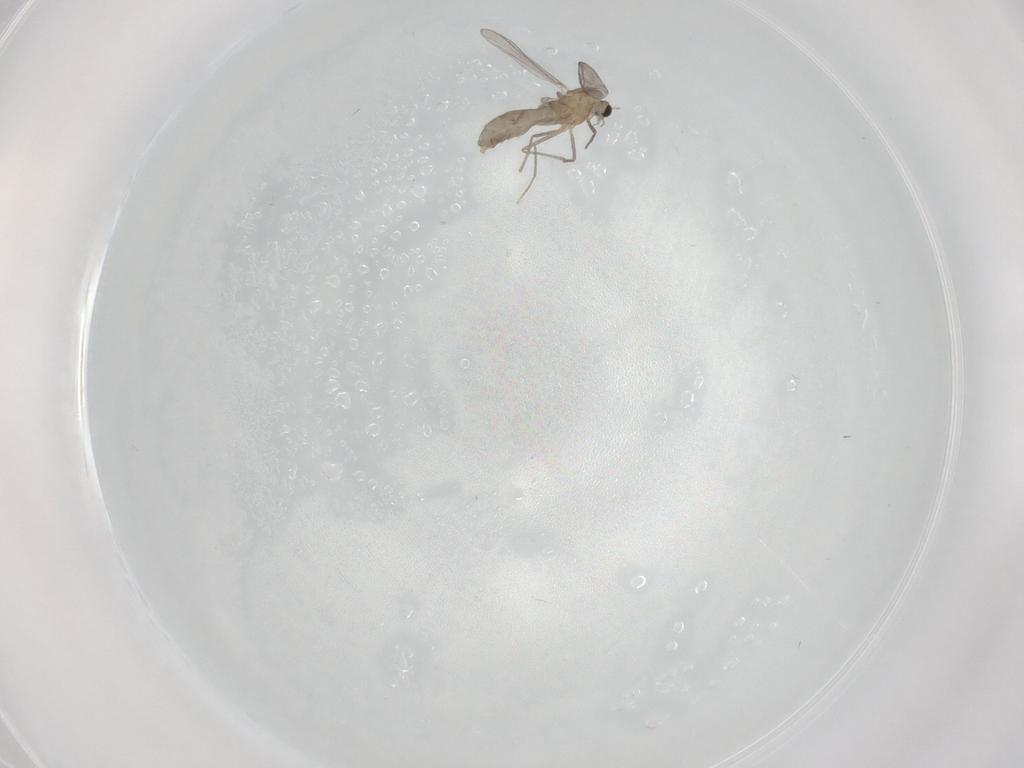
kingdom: Animalia
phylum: Arthropoda
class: Insecta
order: Diptera
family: Chironomidae
